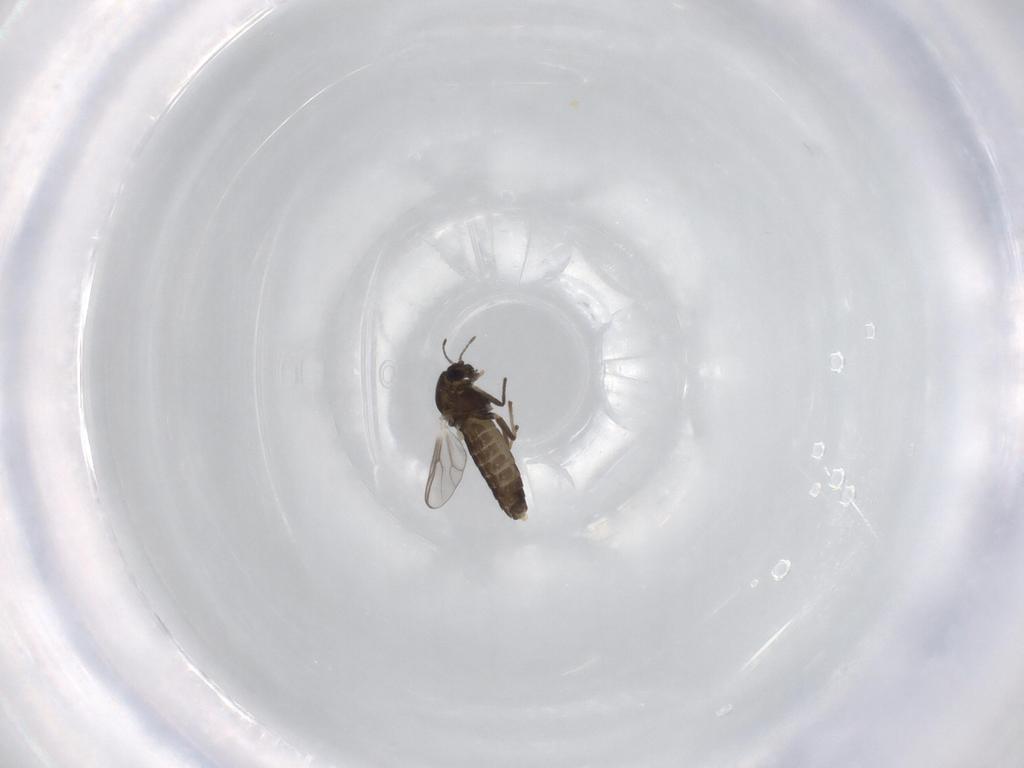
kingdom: Animalia
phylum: Arthropoda
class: Insecta
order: Diptera
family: Chironomidae
